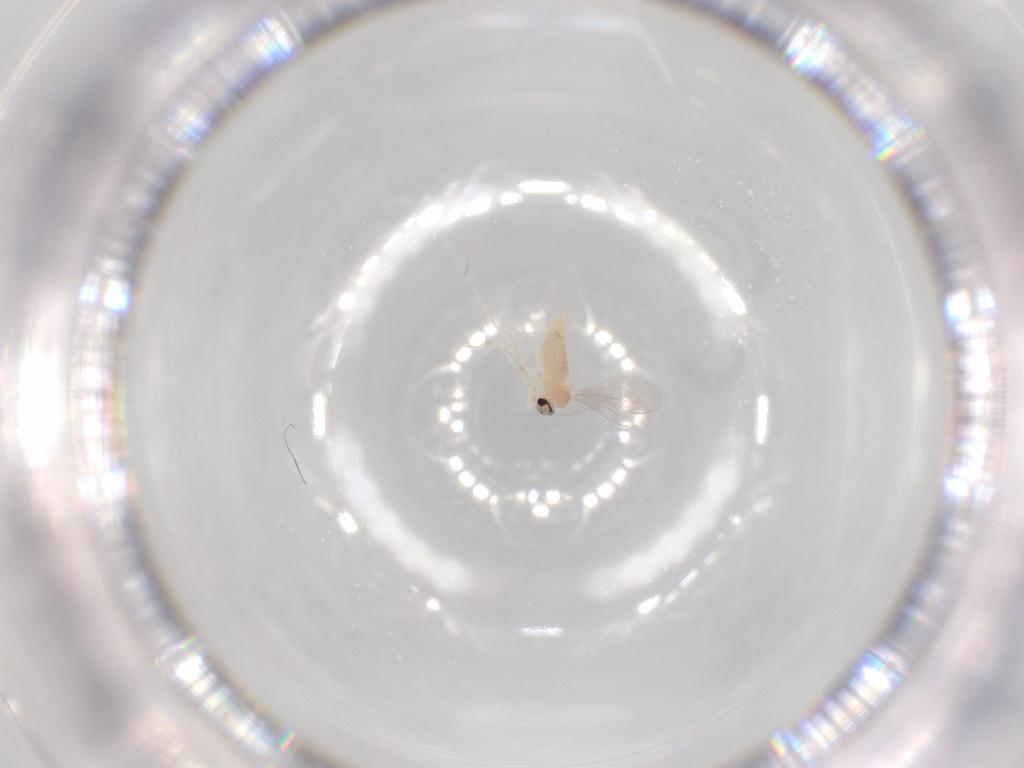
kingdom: Animalia
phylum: Arthropoda
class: Insecta
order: Diptera
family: Cecidomyiidae
